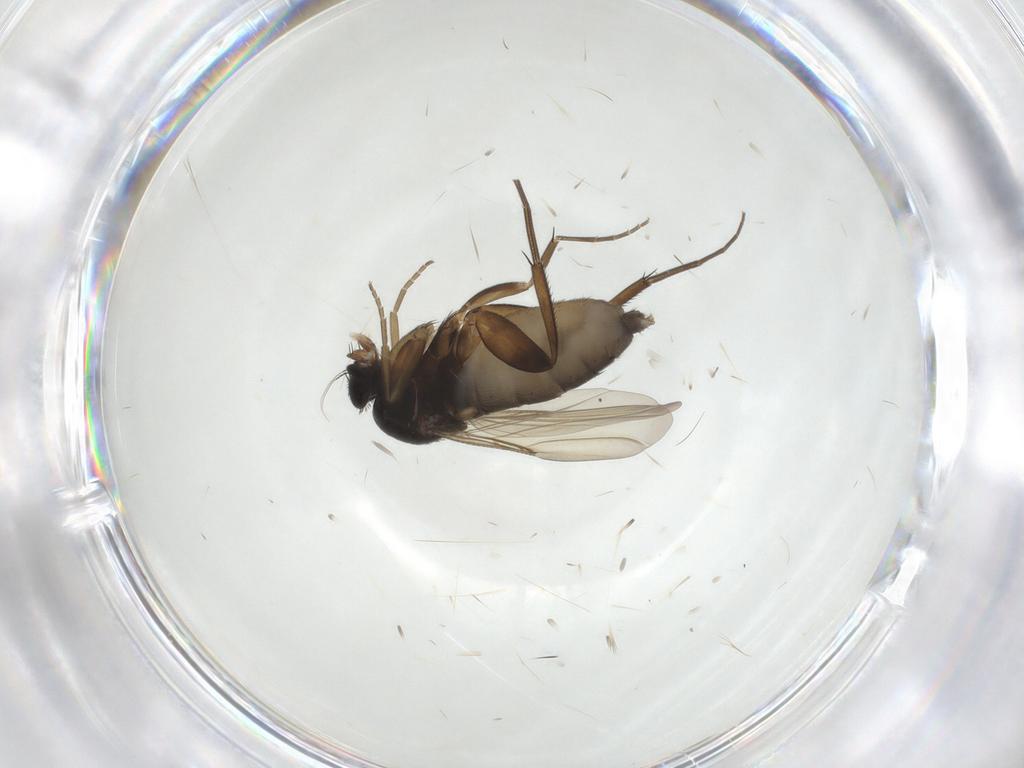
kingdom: Animalia
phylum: Arthropoda
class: Insecta
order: Diptera
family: Phoridae
